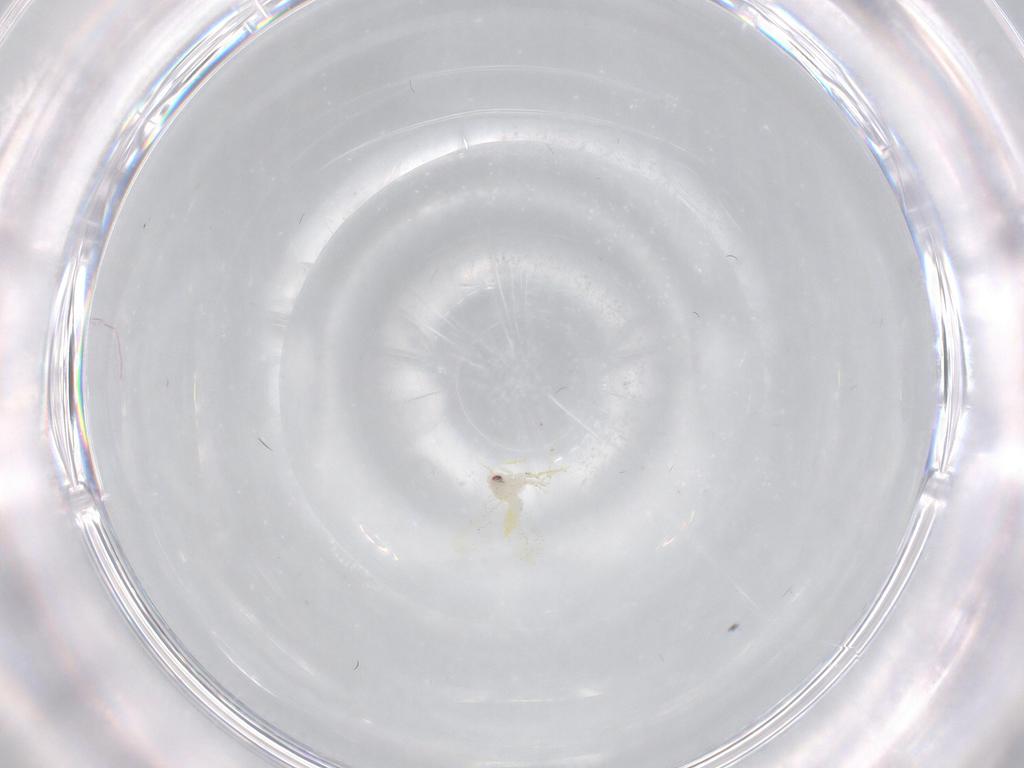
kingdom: Animalia
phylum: Arthropoda
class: Insecta
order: Hemiptera
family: Aleyrodidae
